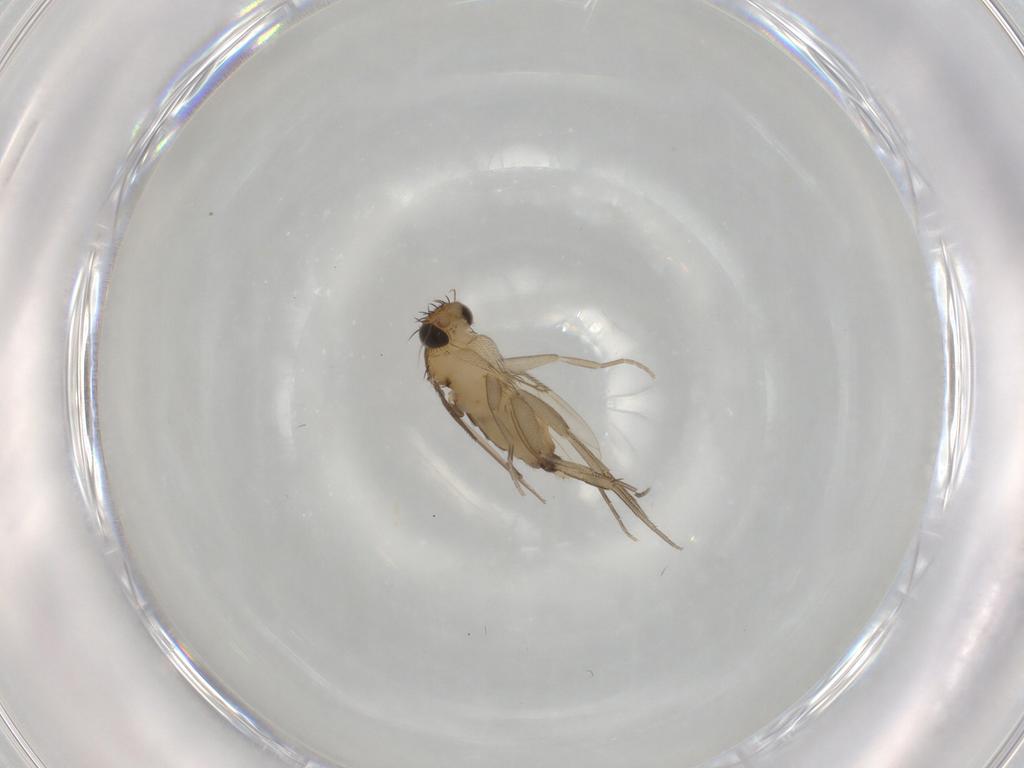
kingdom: Animalia
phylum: Arthropoda
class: Insecta
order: Diptera
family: Phoridae
